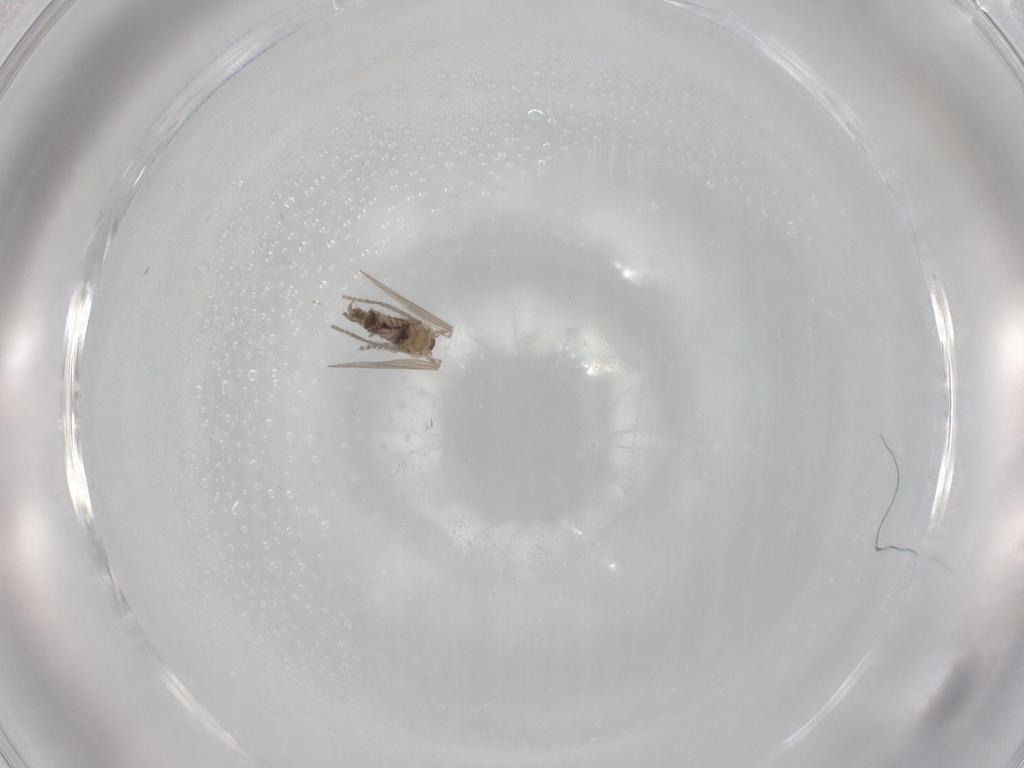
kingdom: Animalia
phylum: Arthropoda
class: Insecta
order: Diptera
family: Psychodidae
